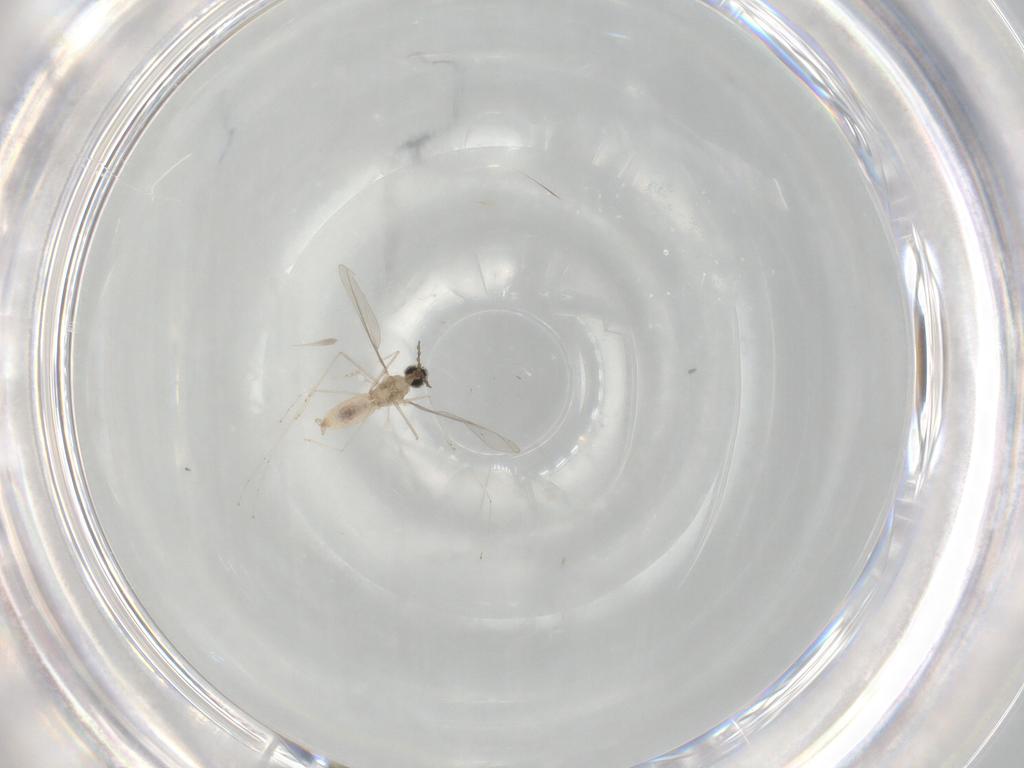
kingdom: Animalia
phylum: Arthropoda
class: Insecta
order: Diptera
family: Cecidomyiidae
